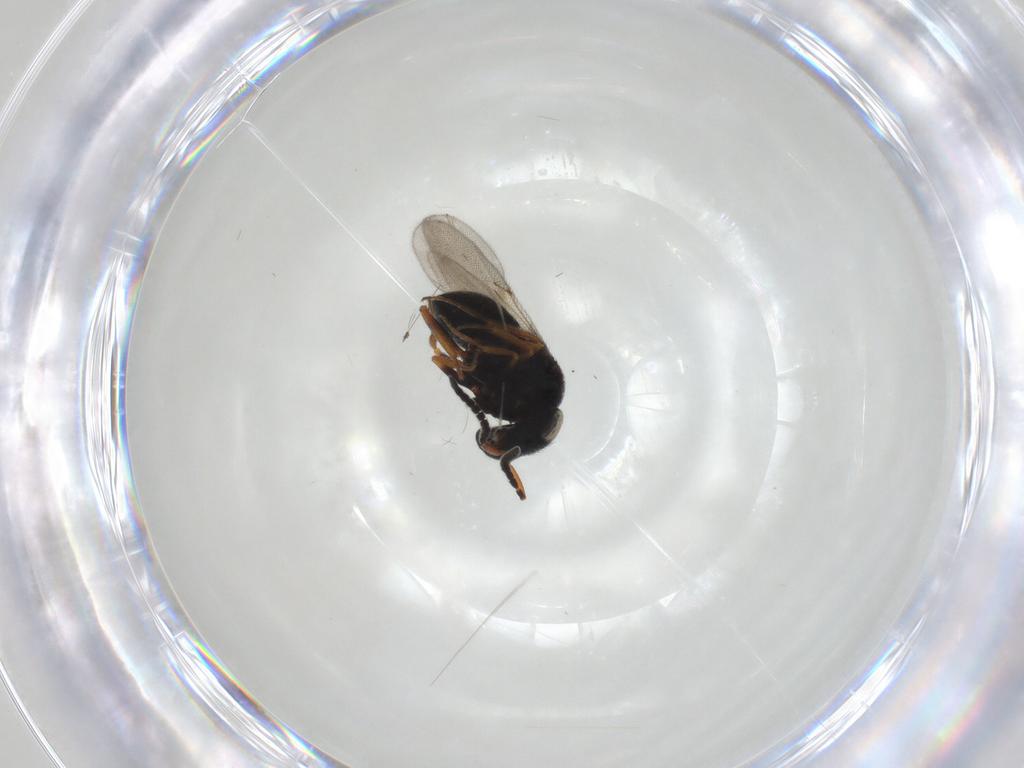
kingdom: Animalia
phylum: Arthropoda
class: Insecta
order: Hymenoptera
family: Scelionidae
